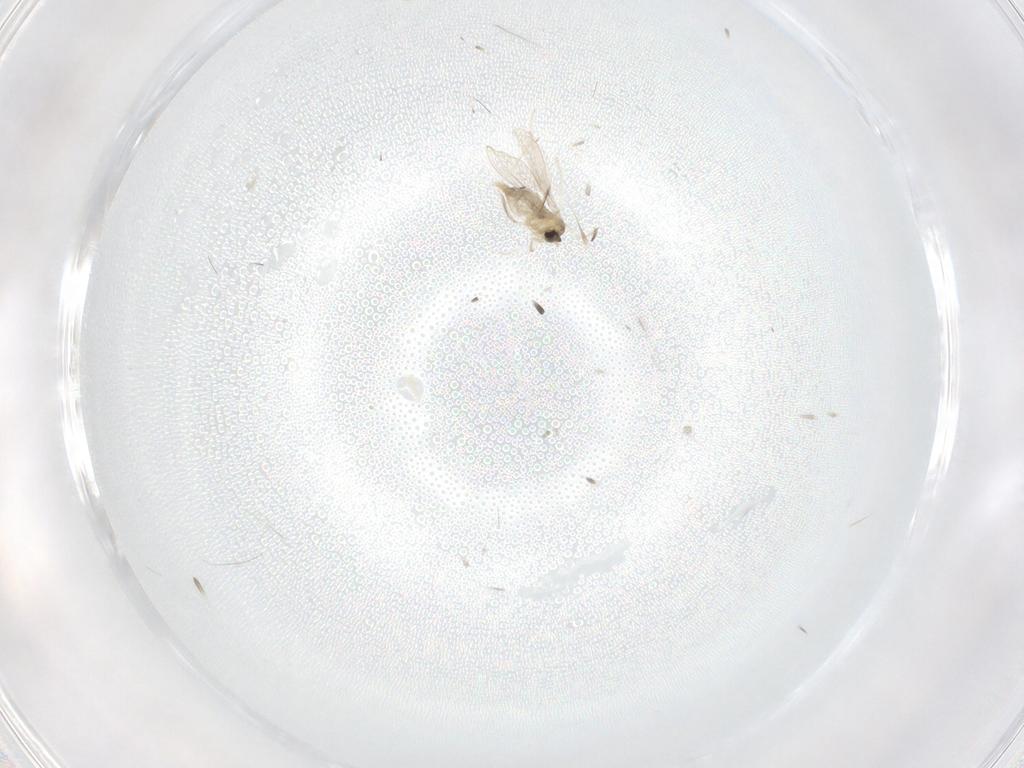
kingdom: Animalia
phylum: Arthropoda
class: Insecta
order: Diptera
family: Cecidomyiidae
